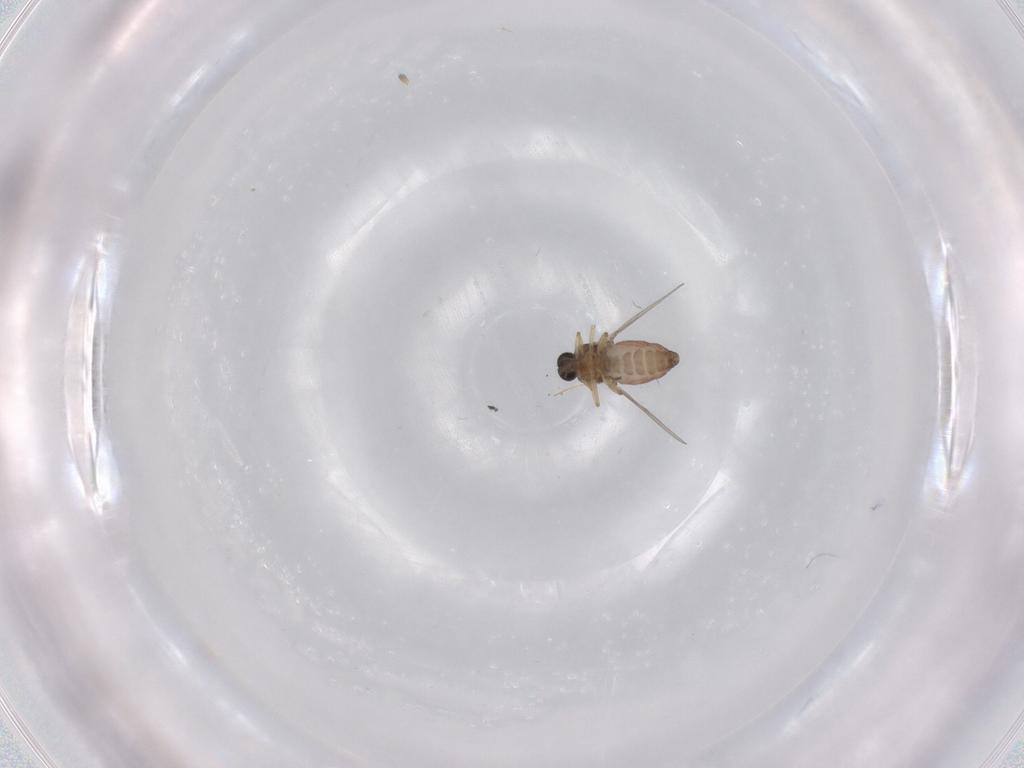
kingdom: Animalia
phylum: Arthropoda
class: Insecta
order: Diptera
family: Ceratopogonidae
